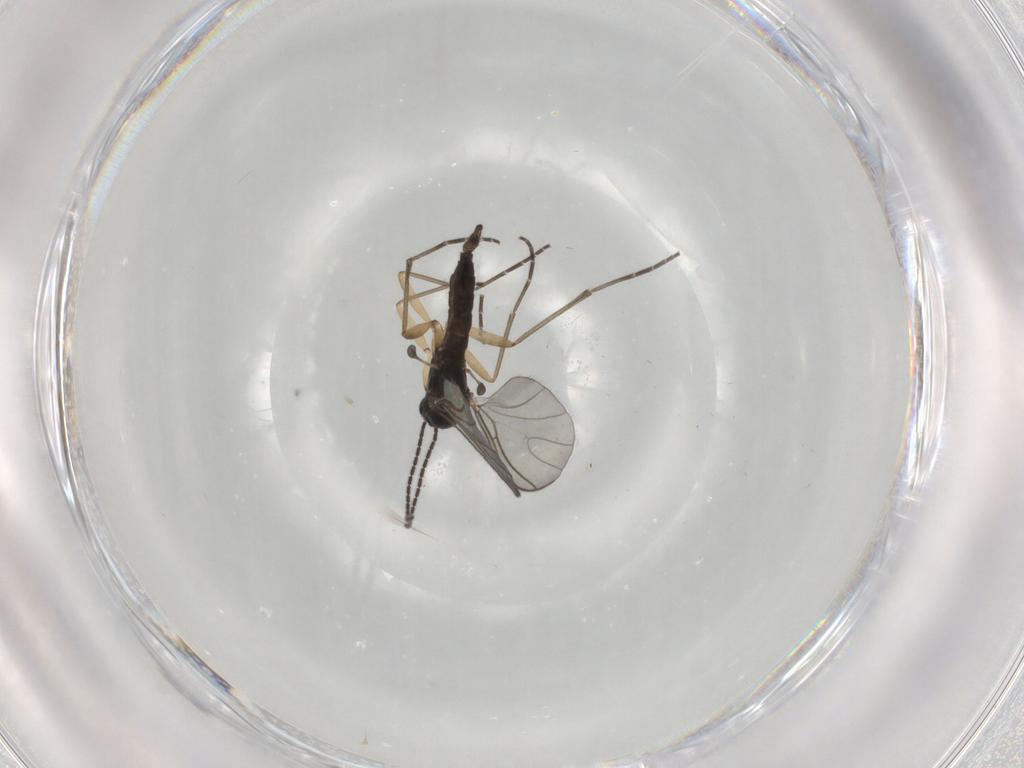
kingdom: Animalia
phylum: Arthropoda
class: Insecta
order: Diptera
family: Sciaridae
